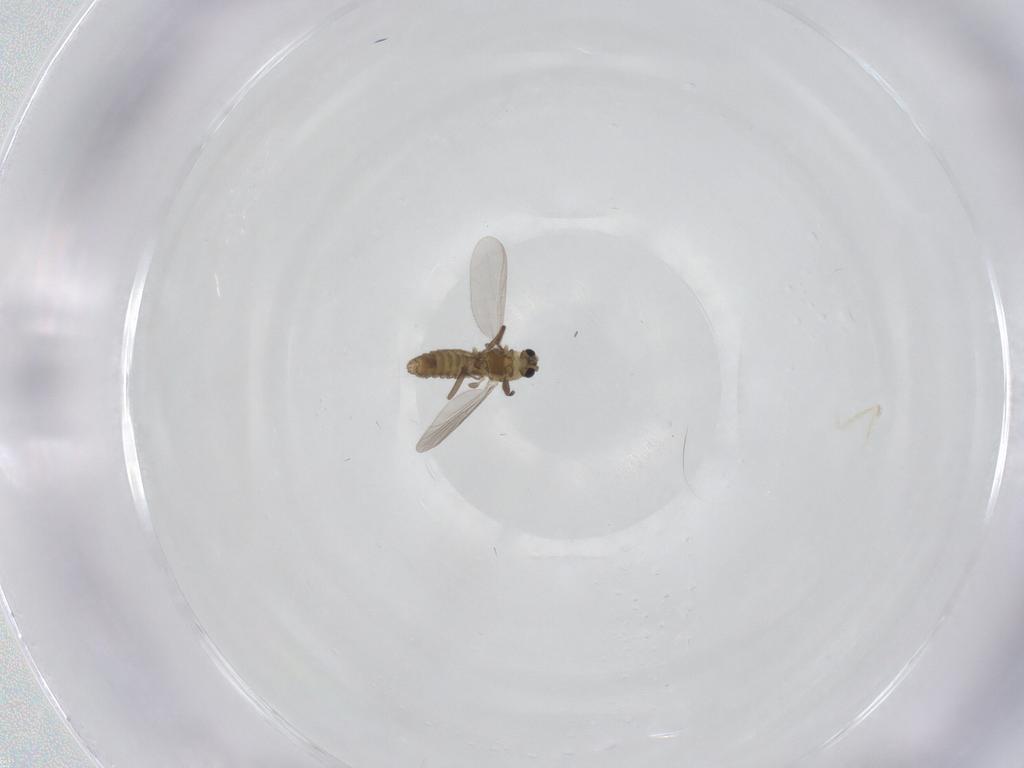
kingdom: Animalia
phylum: Arthropoda
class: Insecta
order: Diptera
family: Chironomidae
